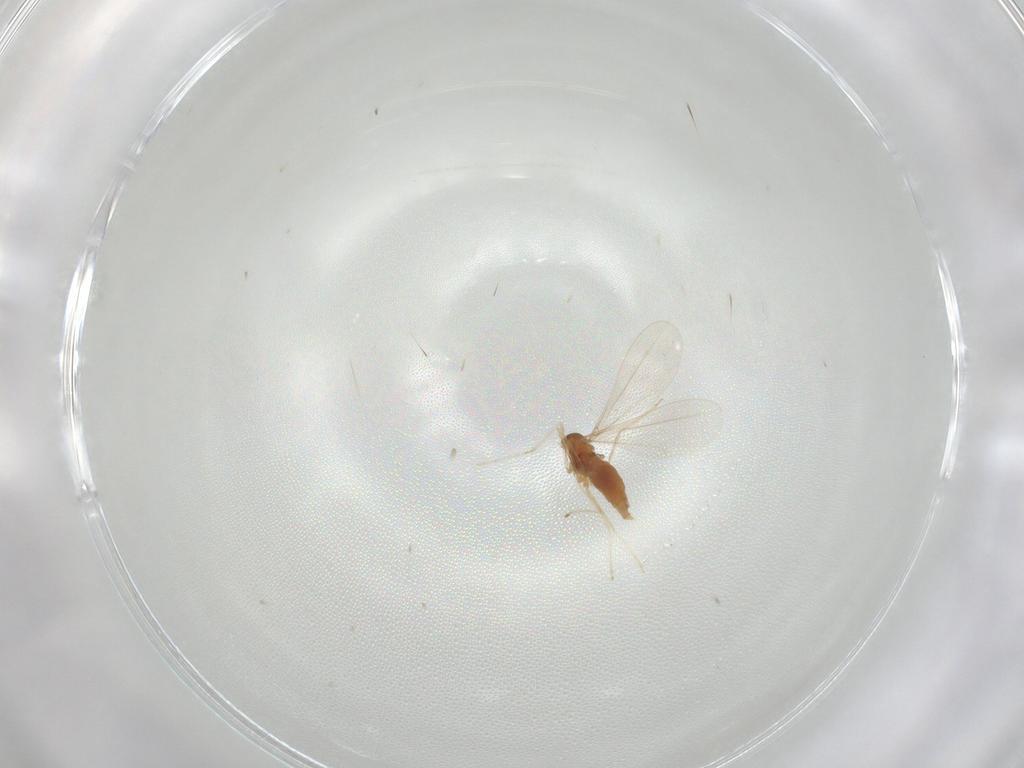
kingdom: Animalia
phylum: Arthropoda
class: Insecta
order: Diptera
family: Cecidomyiidae
